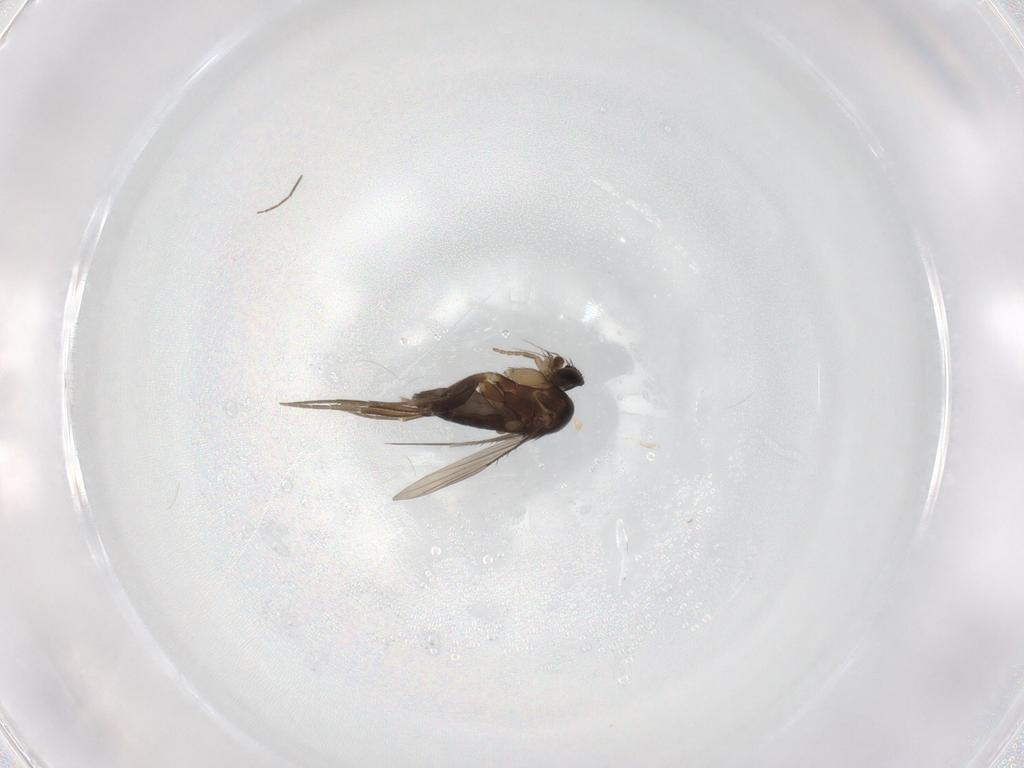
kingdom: Animalia
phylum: Arthropoda
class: Insecta
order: Diptera
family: Phoridae
